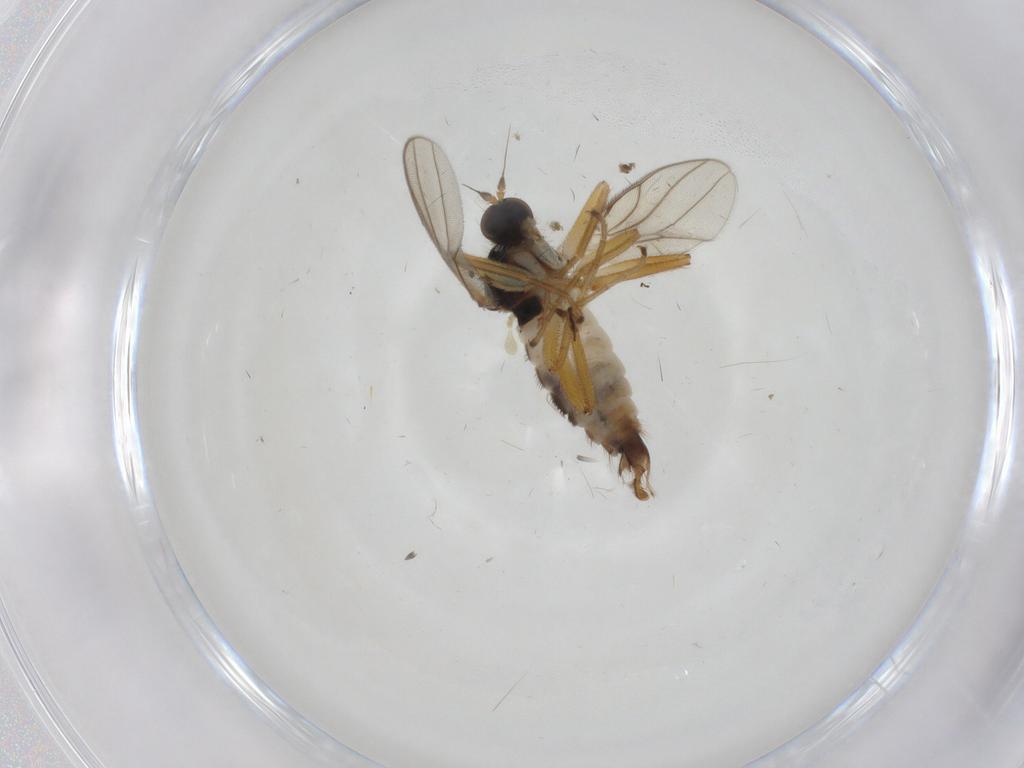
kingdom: Animalia
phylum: Arthropoda
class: Insecta
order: Diptera
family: Hybotidae
